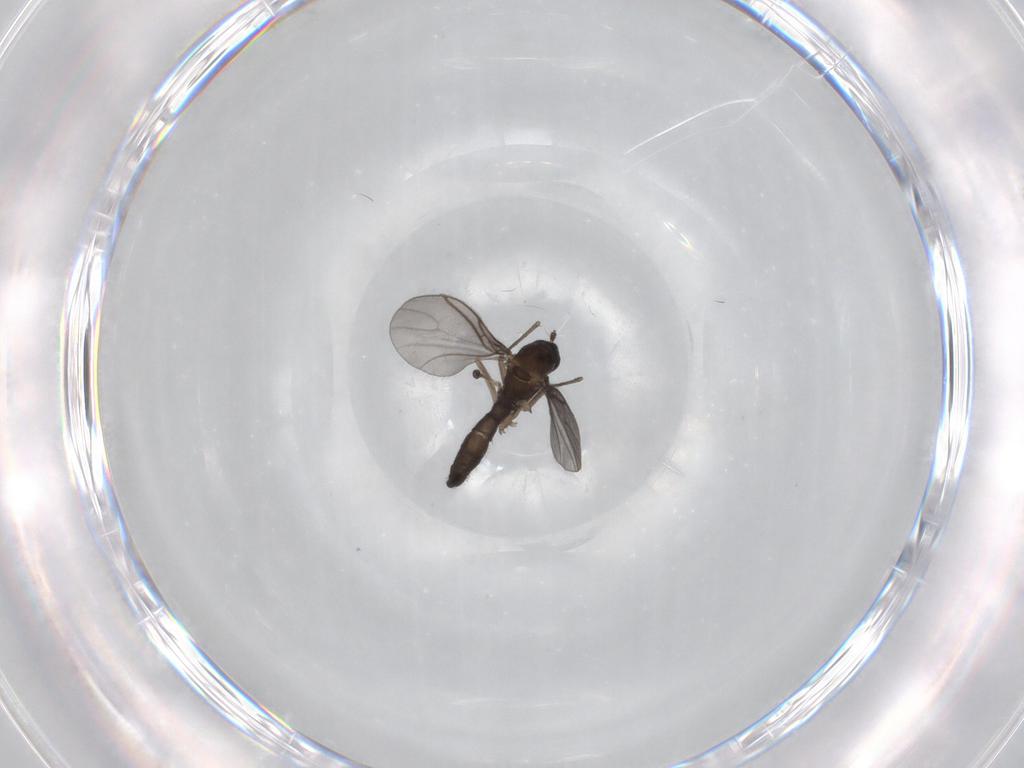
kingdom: Animalia
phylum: Arthropoda
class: Insecta
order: Diptera
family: Sciaridae
